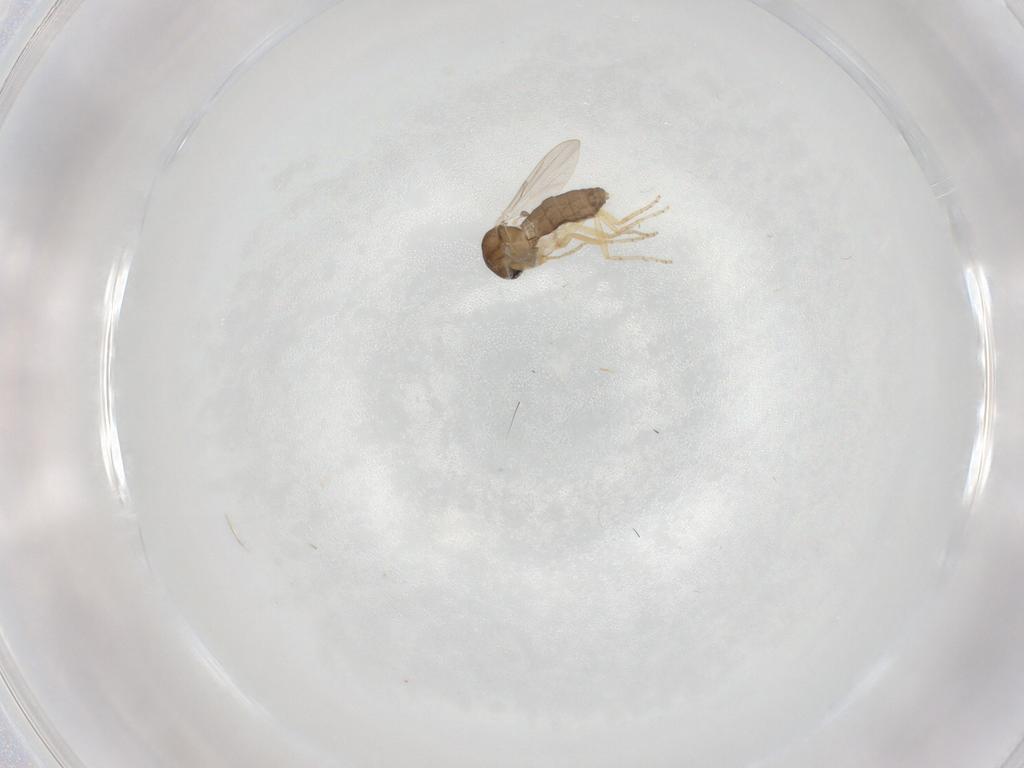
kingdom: Animalia
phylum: Arthropoda
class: Insecta
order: Diptera
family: Ceratopogonidae
